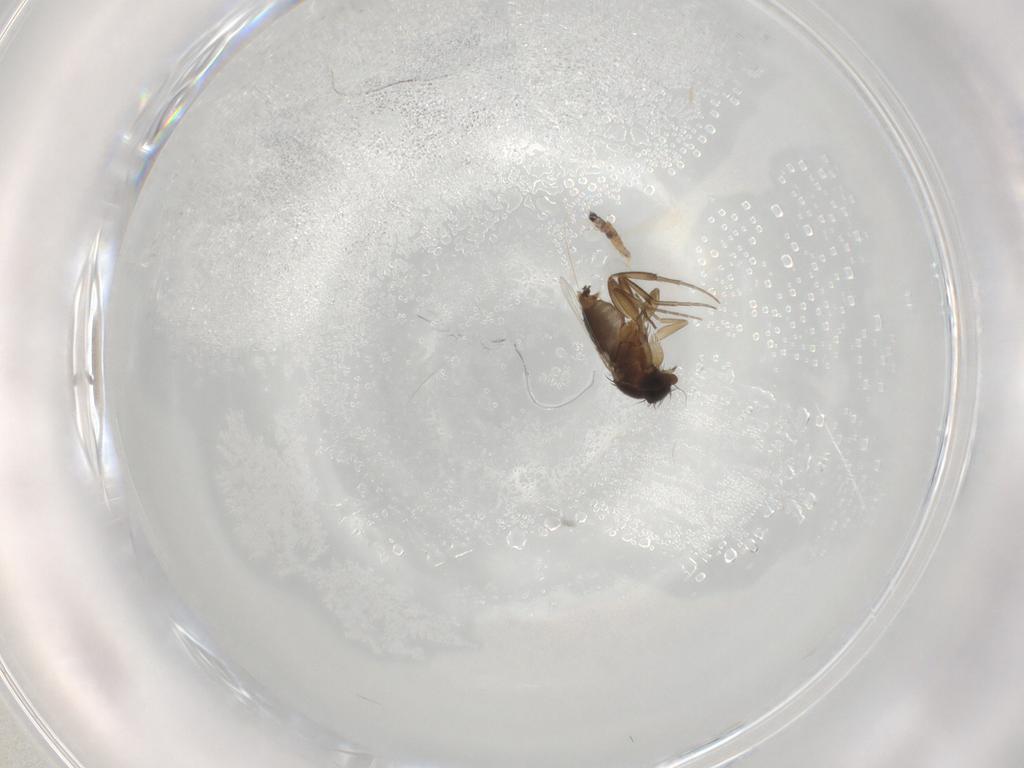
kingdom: Animalia
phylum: Arthropoda
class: Insecta
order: Diptera
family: Phoridae
